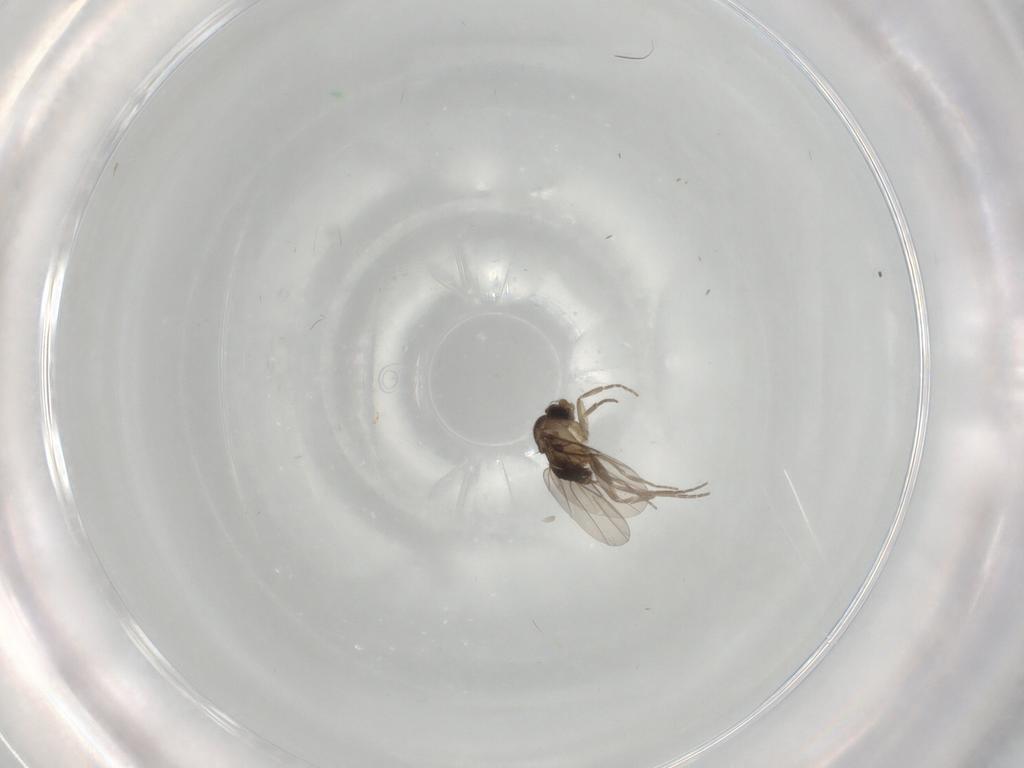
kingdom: Animalia
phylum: Arthropoda
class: Insecta
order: Diptera
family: Phoridae
